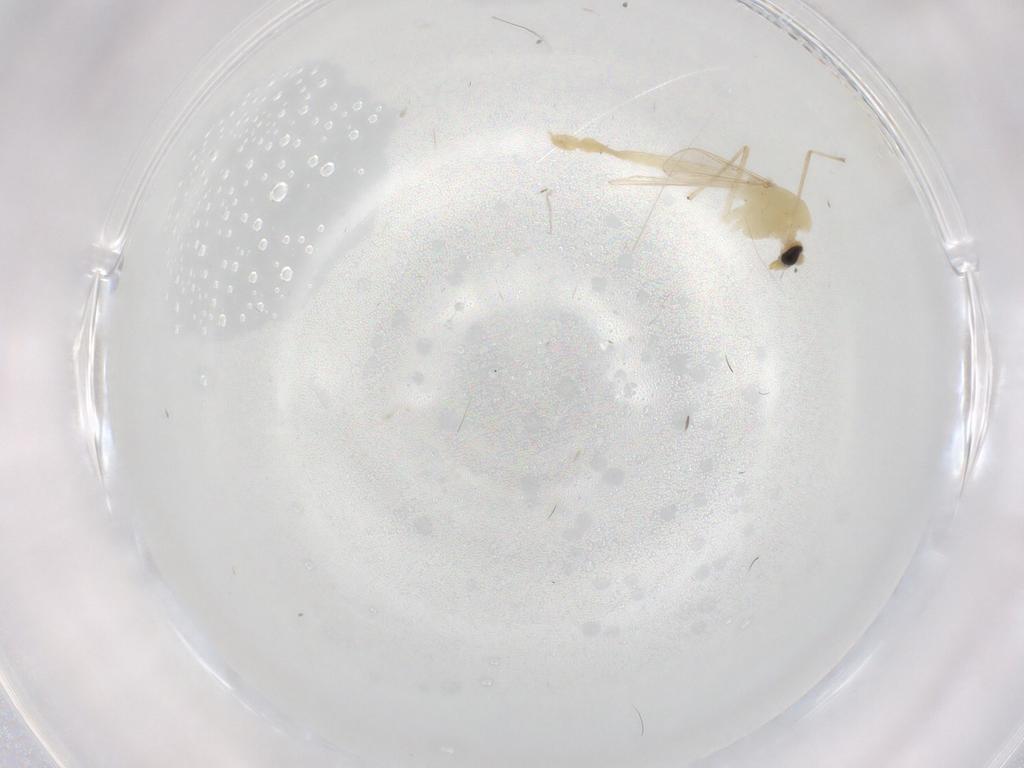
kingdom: Animalia
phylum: Arthropoda
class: Insecta
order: Diptera
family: Chironomidae
